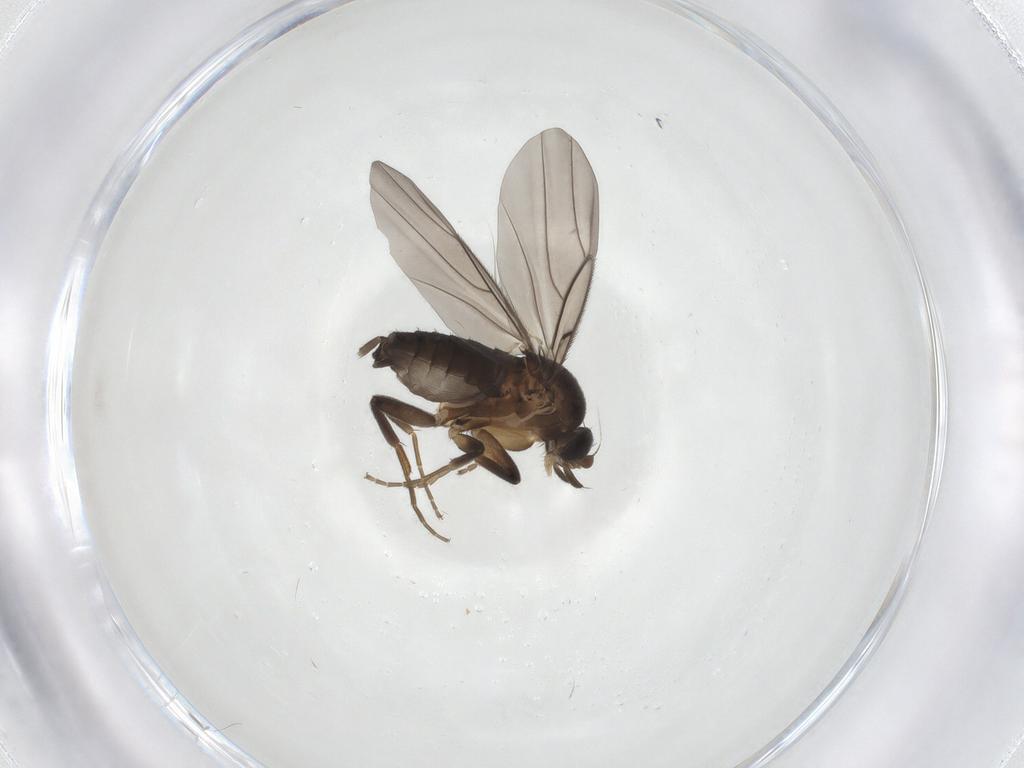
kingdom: Animalia
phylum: Arthropoda
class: Insecta
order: Diptera
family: Phoridae
